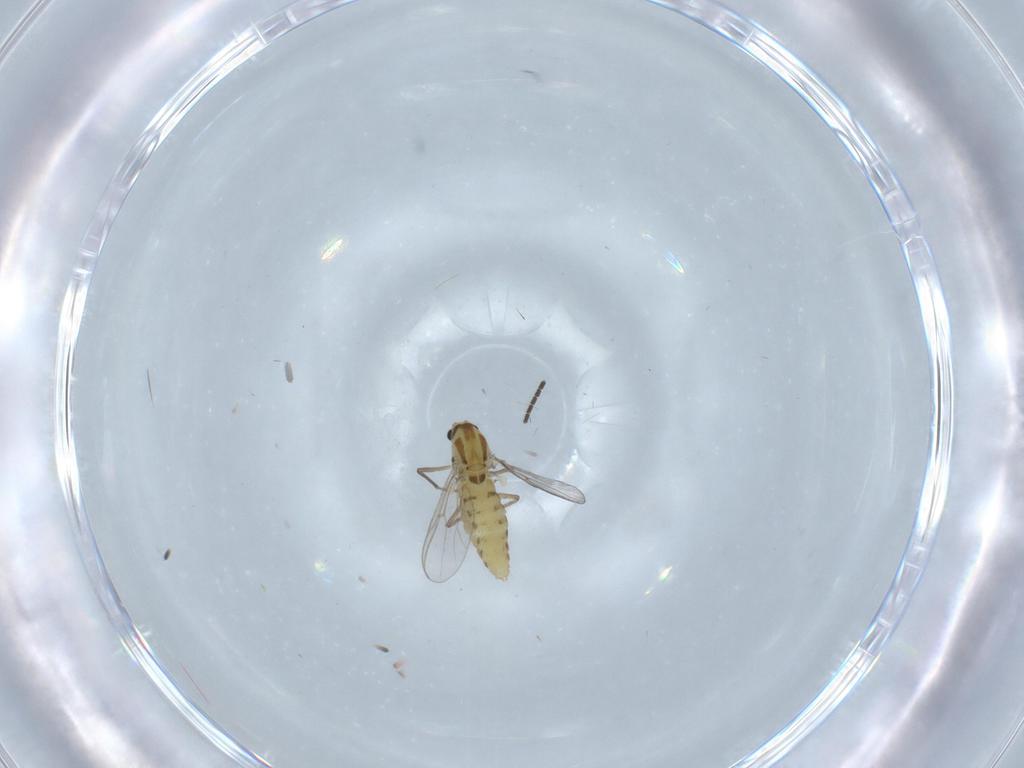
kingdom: Animalia
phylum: Arthropoda
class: Insecta
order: Diptera
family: Chironomidae
